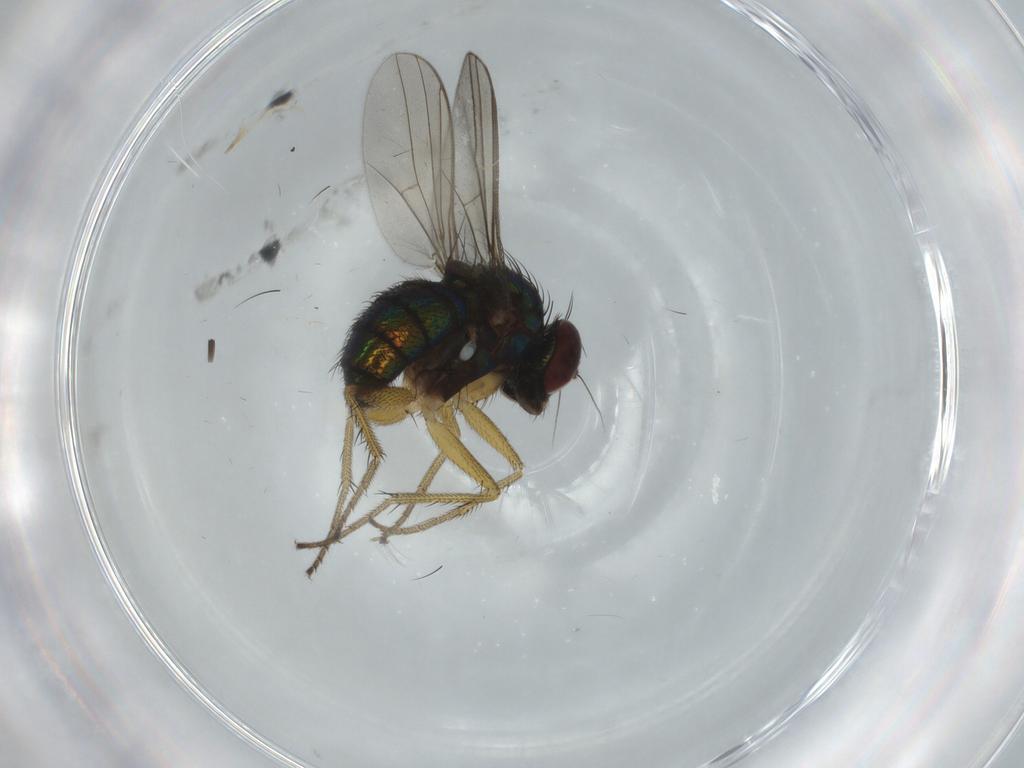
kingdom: Animalia
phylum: Arthropoda
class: Insecta
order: Diptera
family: Dolichopodidae
